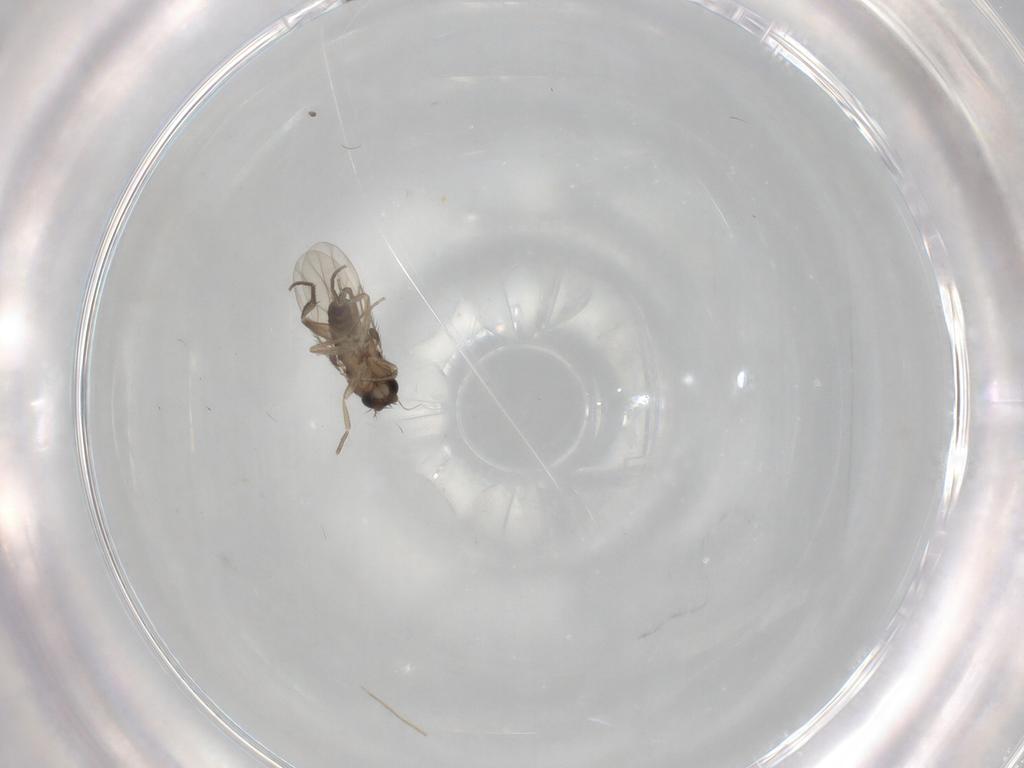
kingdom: Animalia
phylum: Arthropoda
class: Insecta
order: Diptera
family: Phoridae
